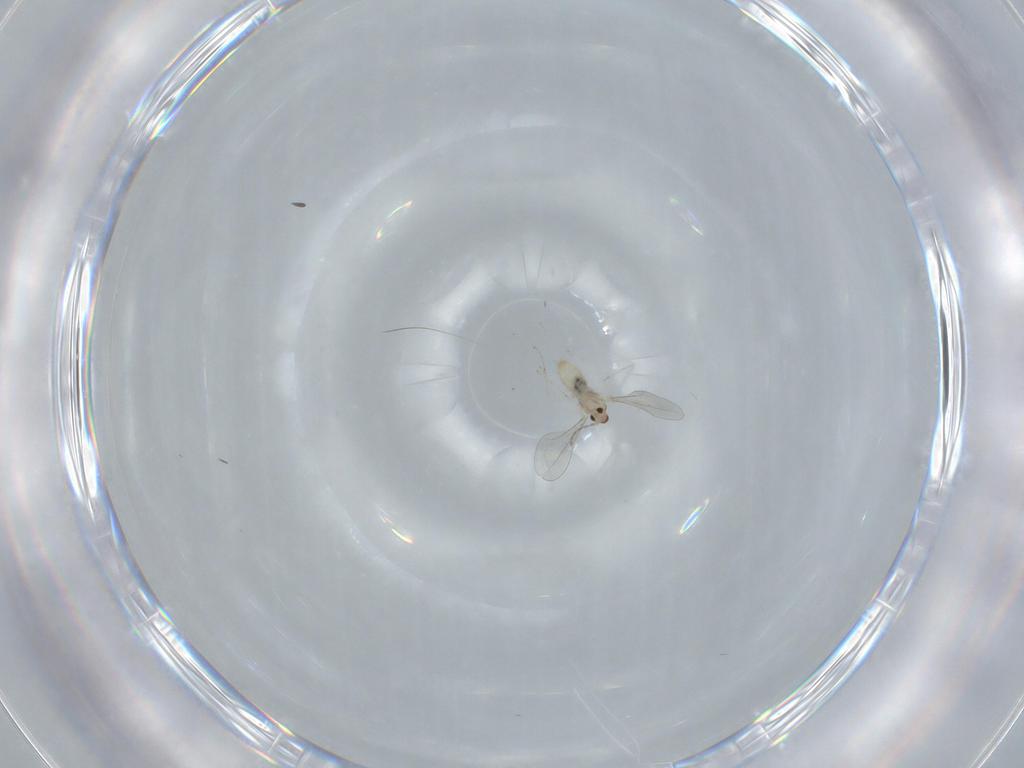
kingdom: Animalia
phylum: Arthropoda
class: Insecta
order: Diptera
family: Cecidomyiidae
